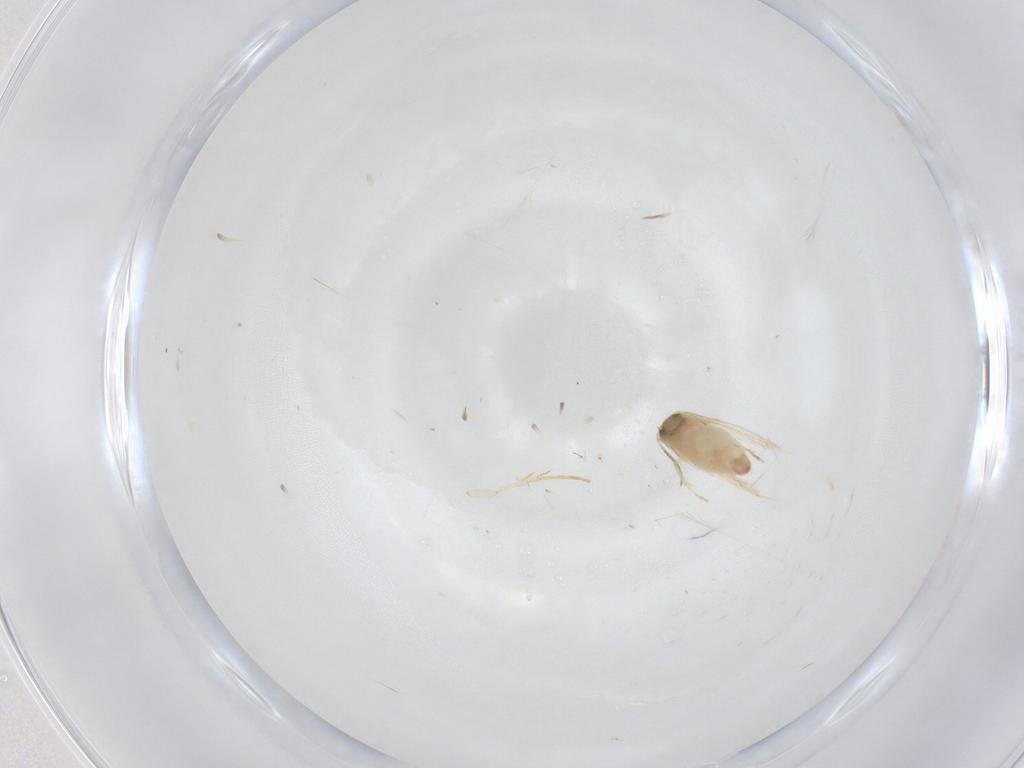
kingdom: Animalia
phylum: Arthropoda
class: Insecta
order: Lepidoptera
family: Crambidae
